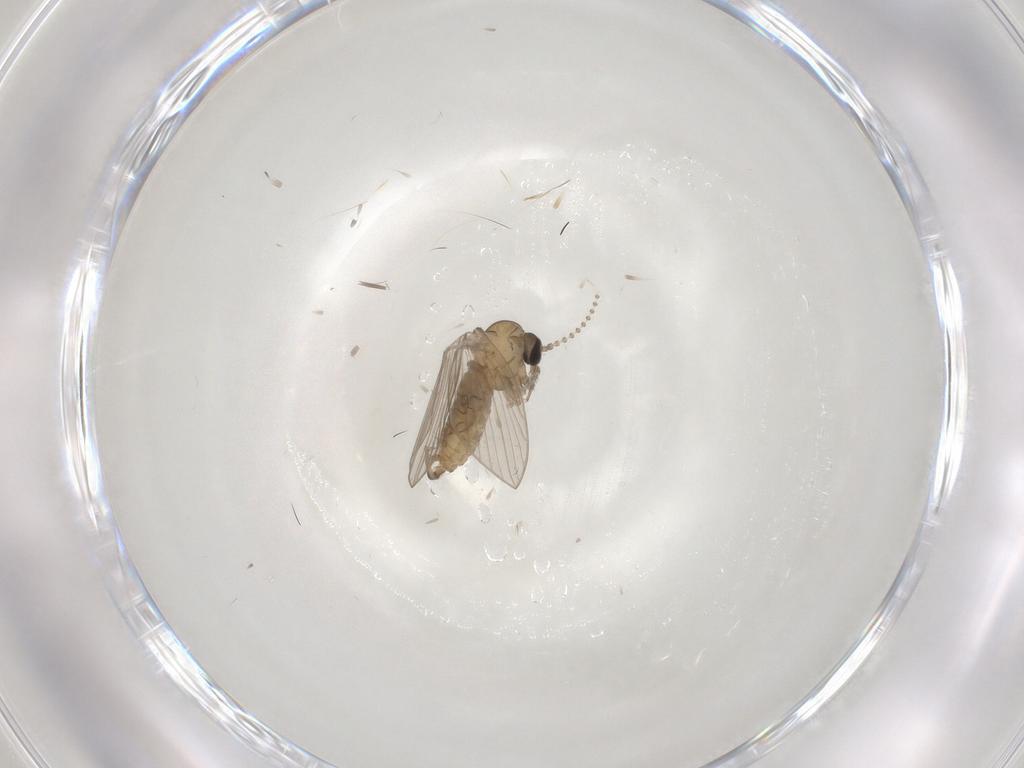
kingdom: Animalia
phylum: Arthropoda
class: Insecta
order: Diptera
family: Psychodidae
